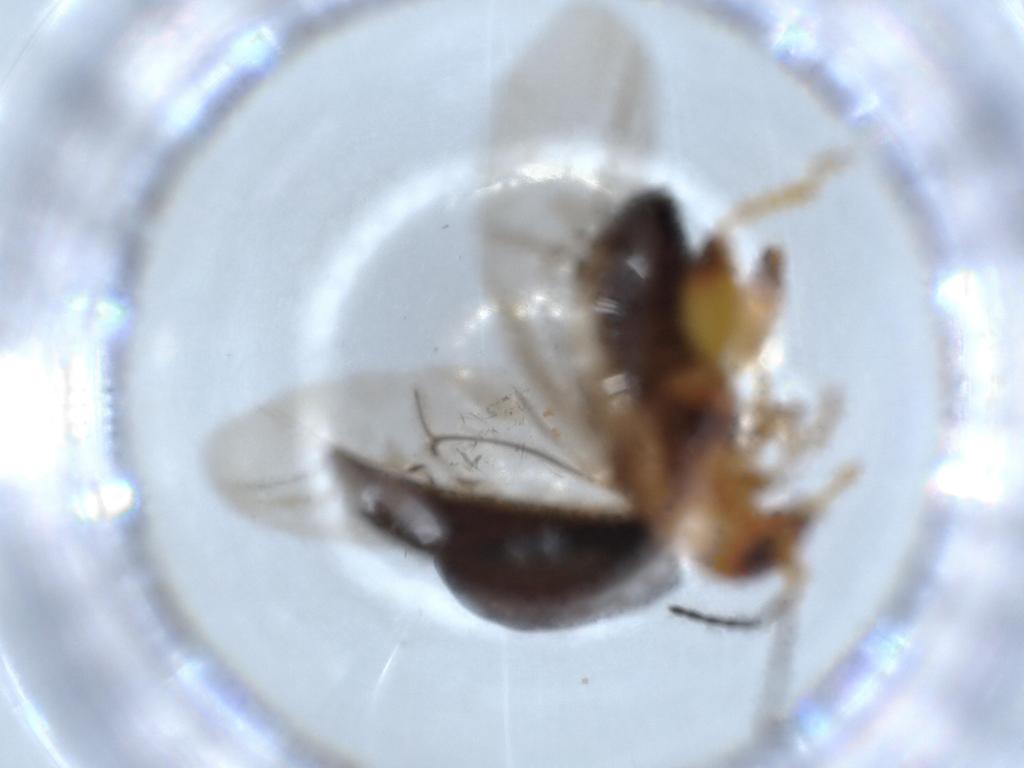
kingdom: Animalia
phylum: Arthropoda
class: Insecta
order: Coleoptera
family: Chrysomelidae
